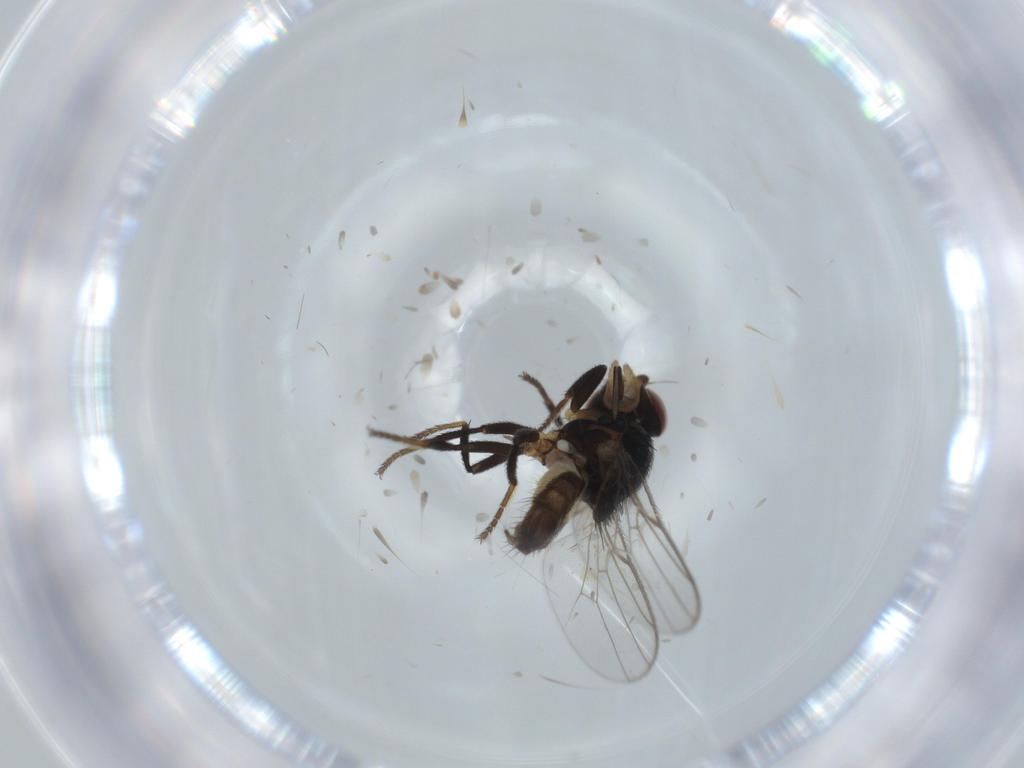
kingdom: Animalia
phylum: Arthropoda
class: Insecta
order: Diptera
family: Chloropidae
